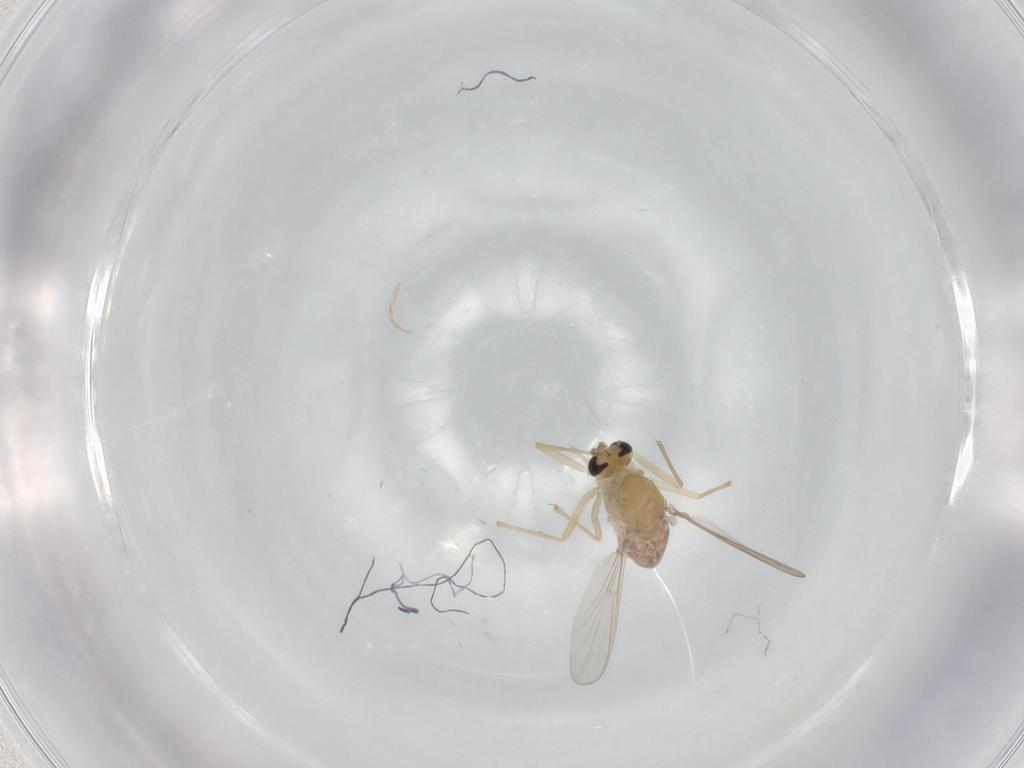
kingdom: Animalia
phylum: Arthropoda
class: Insecta
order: Diptera
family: Chironomidae
